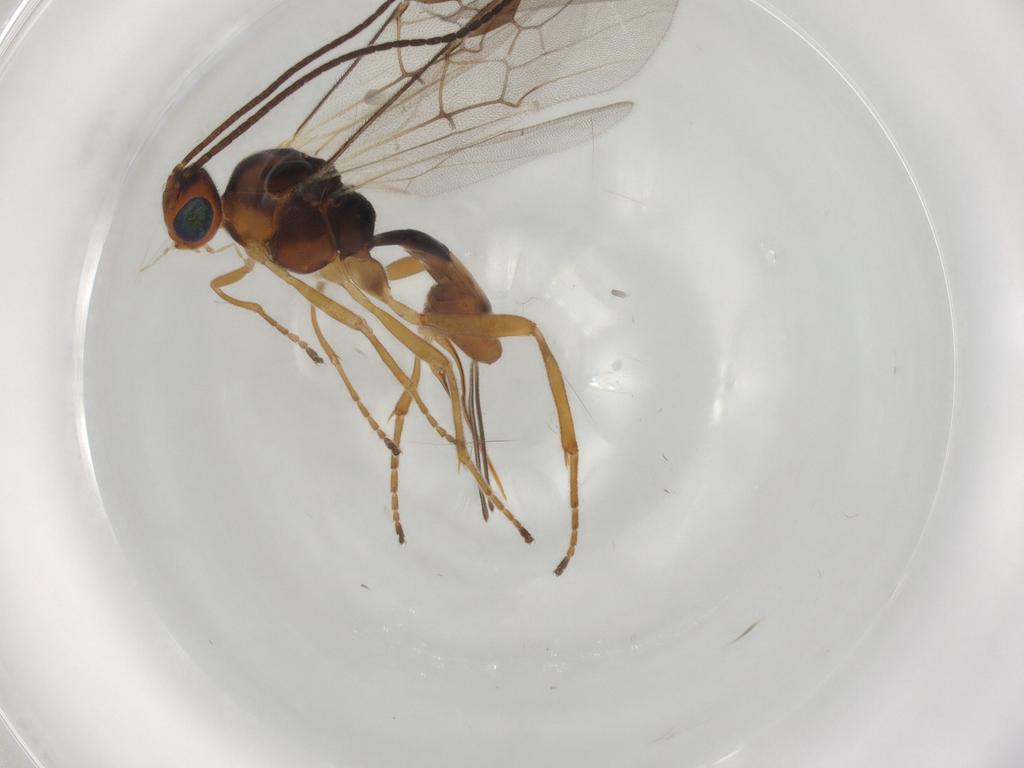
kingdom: Animalia
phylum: Arthropoda
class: Insecta
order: Hymenoptera
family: Braconidae
